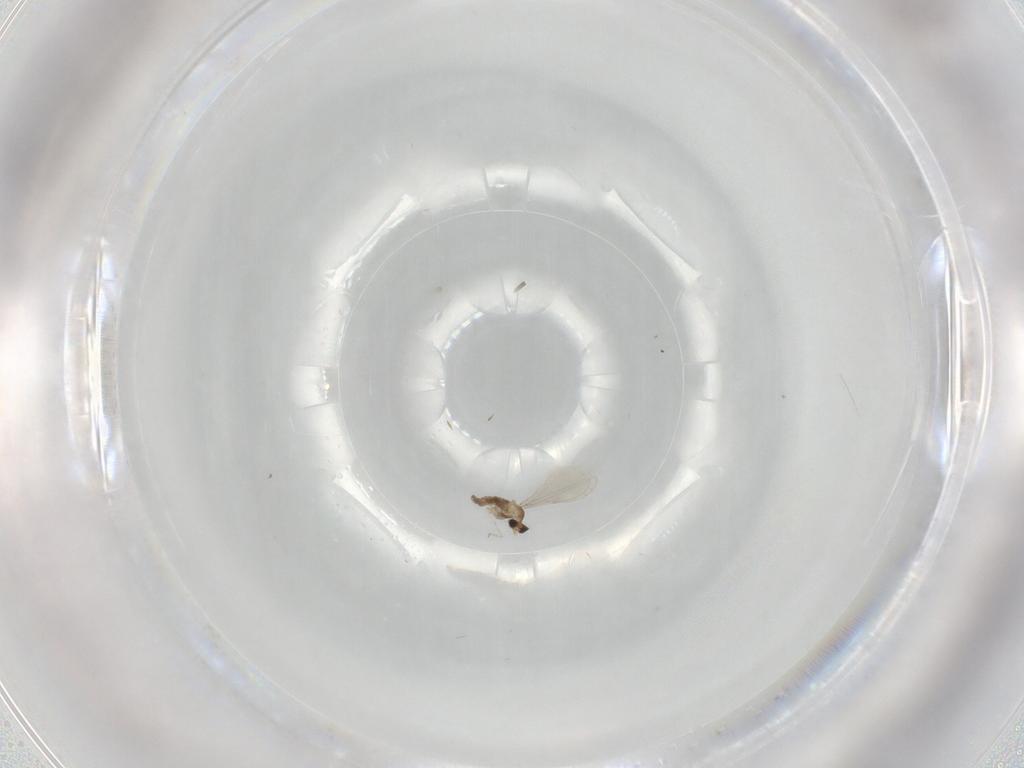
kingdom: Animalia
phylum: Arthropoda
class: Insecta
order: Diptera
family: Cecidomyiidae
